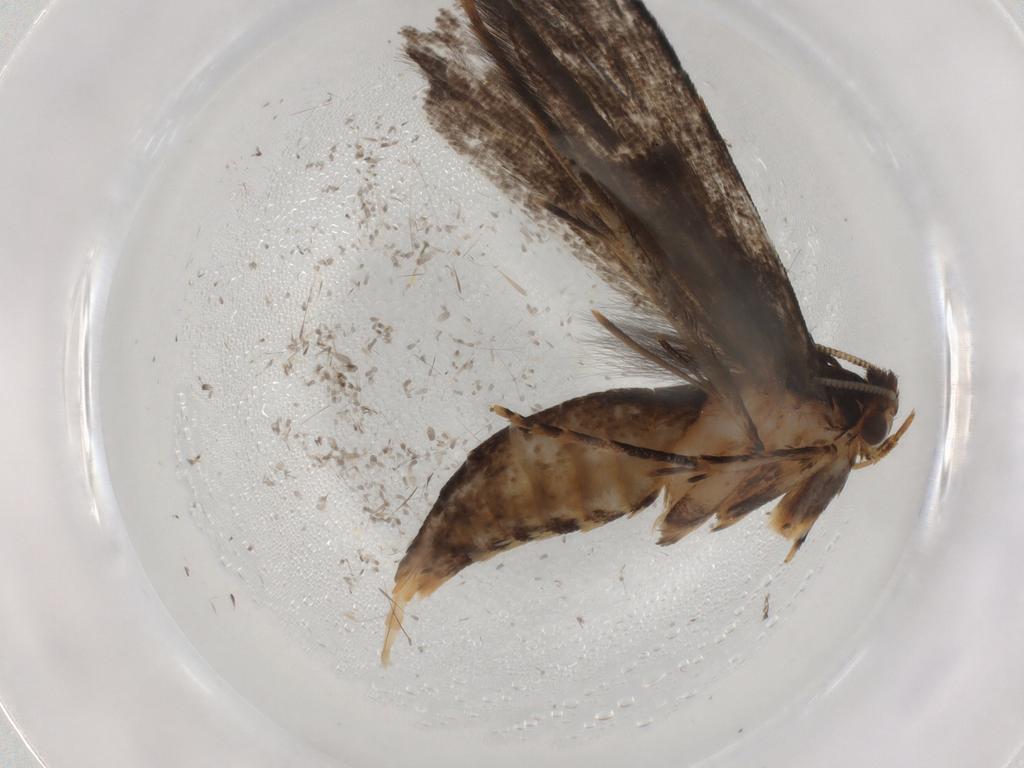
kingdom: Animalia
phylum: Arthropoda
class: Insecta
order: Lepidoptera
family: Tineidae
